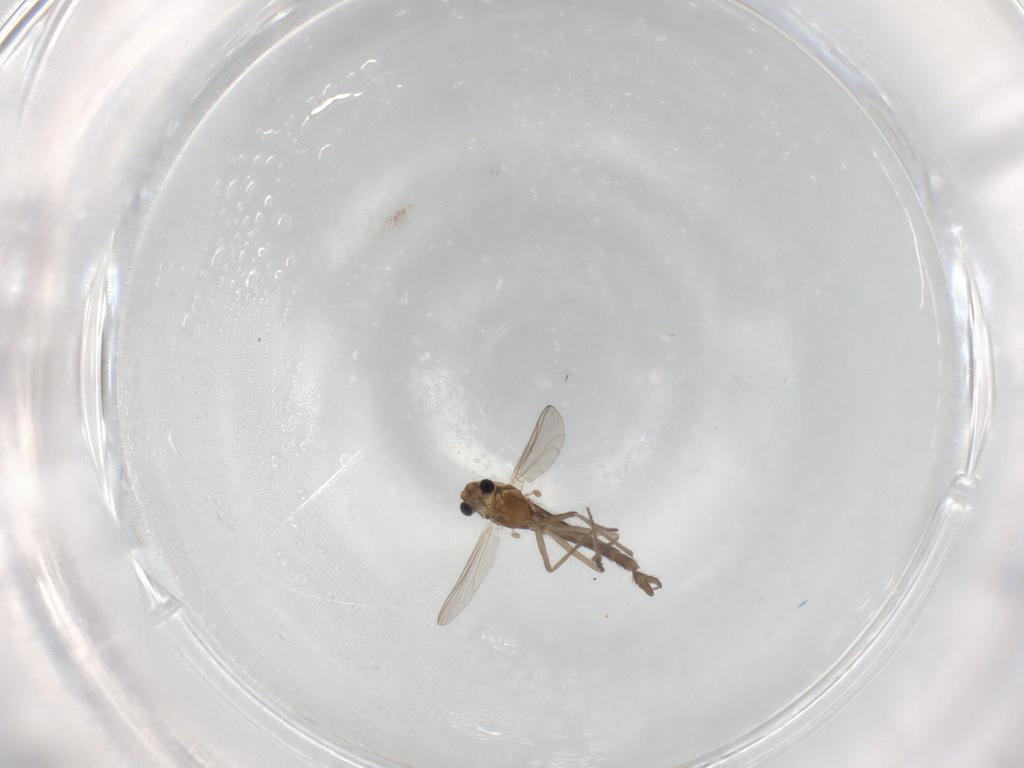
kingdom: Animalia
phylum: Arthropoda
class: Insecta
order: Diptera
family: Chironomidae
